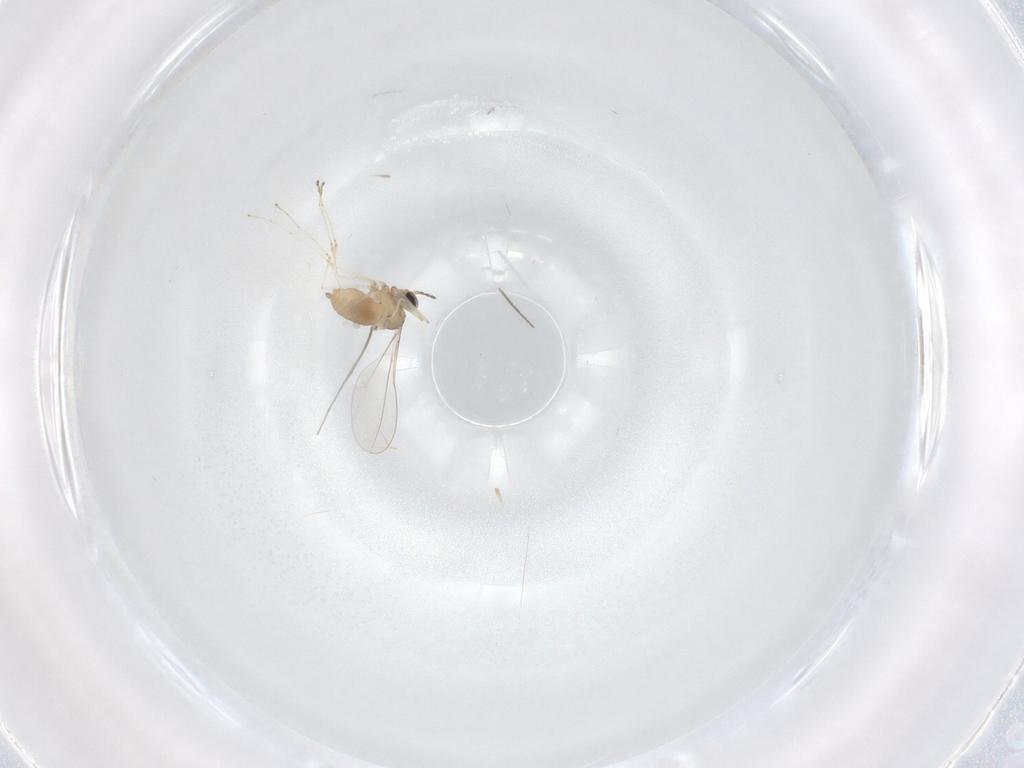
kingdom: Animalia
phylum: Arthropoda
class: Insecta
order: Diptera
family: Cecidomyiidae
